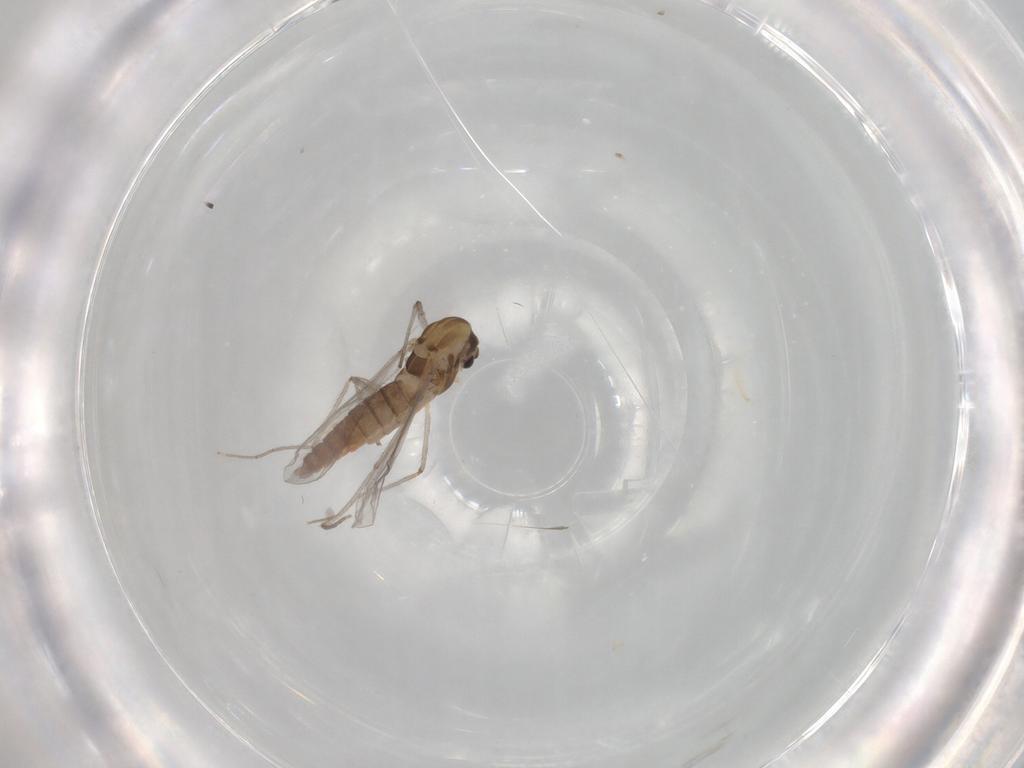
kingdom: Animalia
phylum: Arthropoda
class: Insecta
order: Diptera
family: Chironomidae
